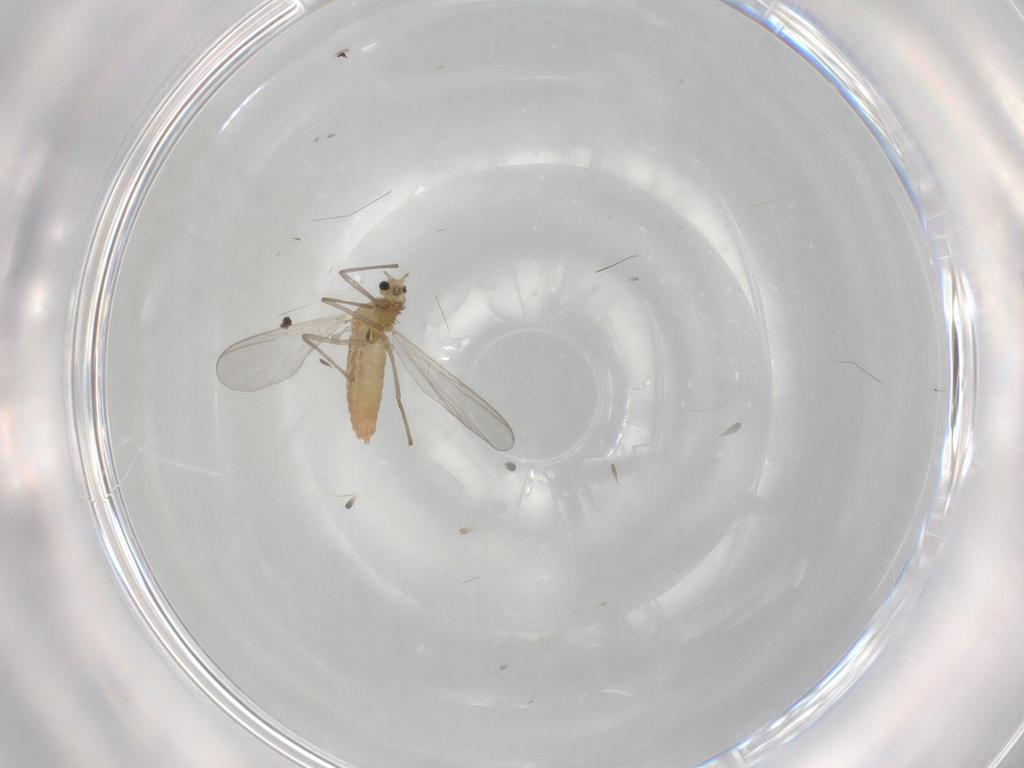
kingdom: Animalia
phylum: Arthropoda
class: Insecta
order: Diptera
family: Chironomidae
